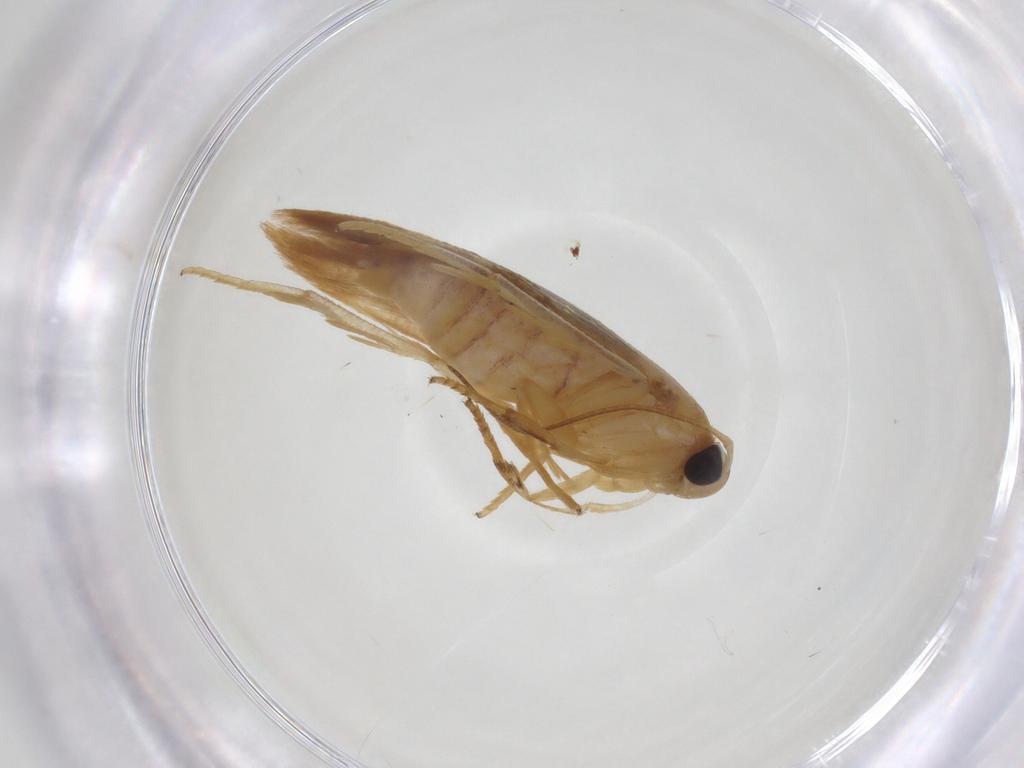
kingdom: Animalia
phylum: Arthropoda
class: Insecta
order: Lepidoptera
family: Stathmopodidae
